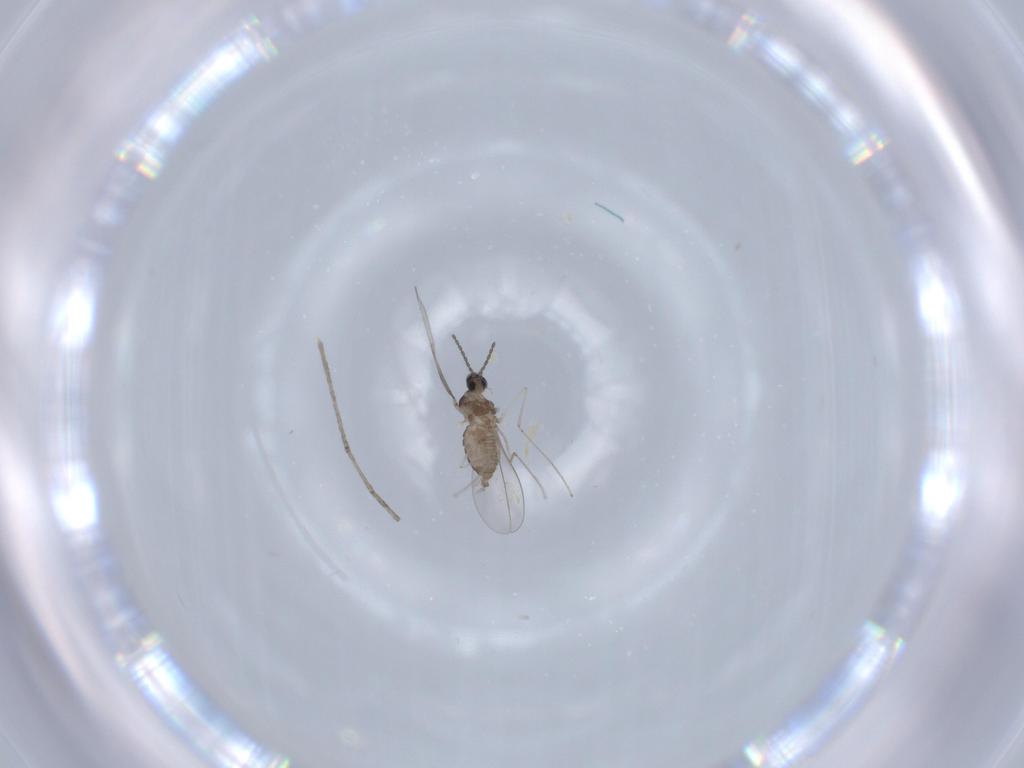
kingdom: Animalia
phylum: Arthropoda
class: Insecta
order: Diptera
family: Cecidomyiidae
